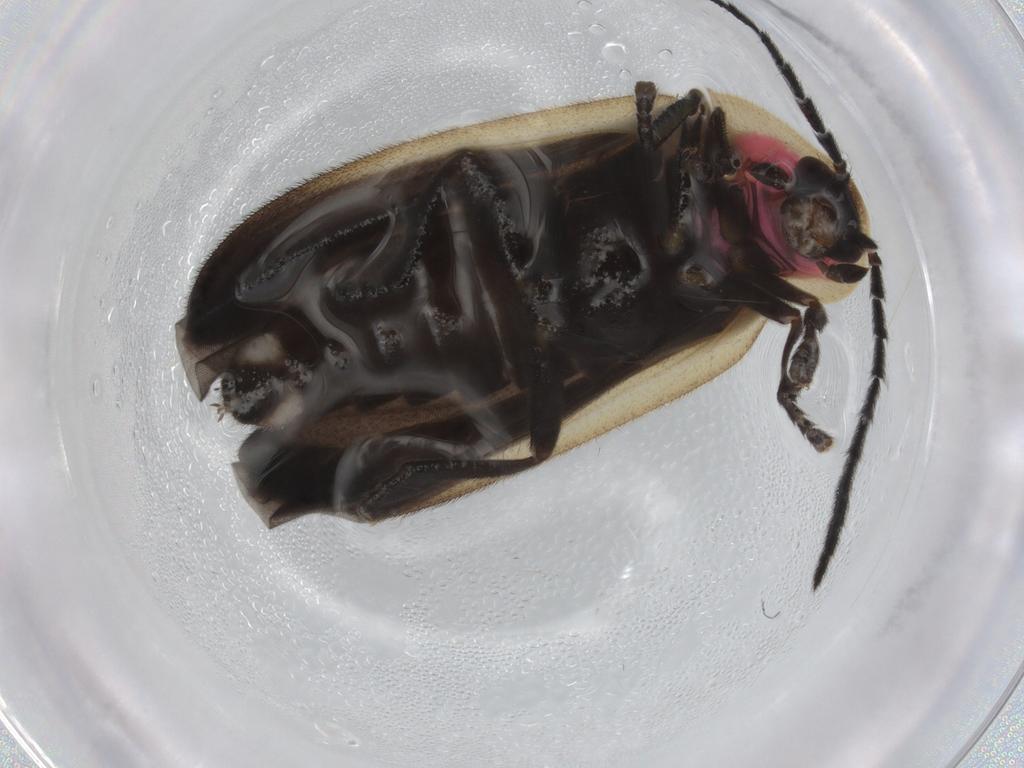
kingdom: Animalia
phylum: Arthropoda
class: Insecta
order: Coleoptera
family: Lampyridae
